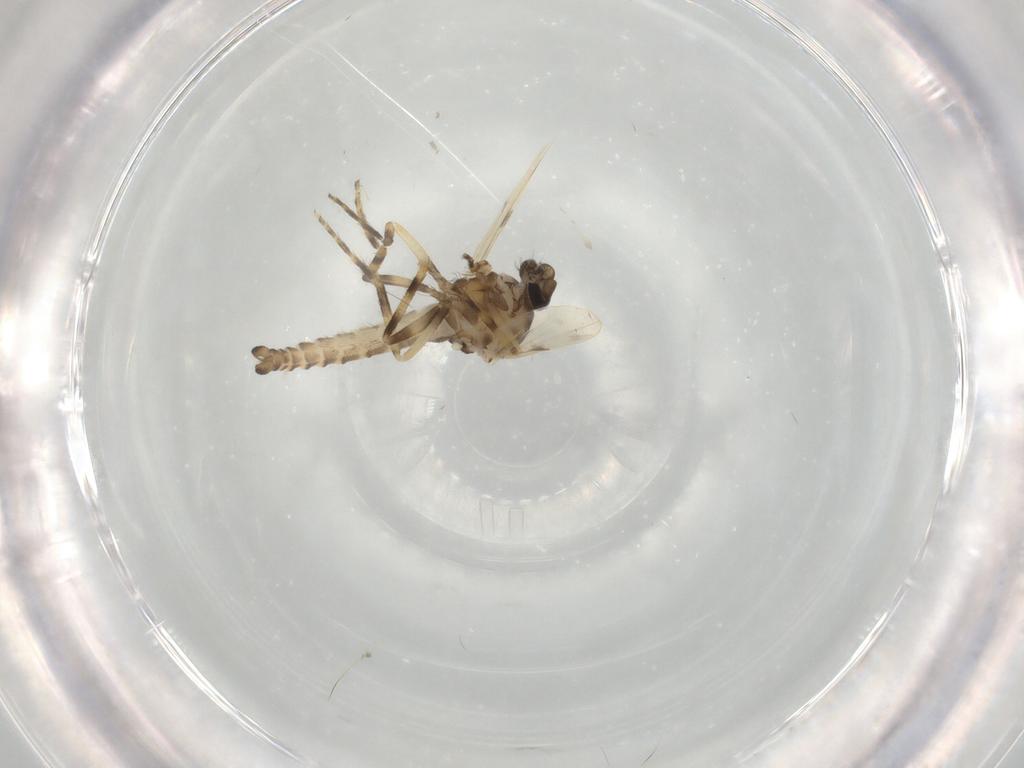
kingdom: Animalia
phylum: Arthropoda
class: Insecta
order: Diptera
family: Ceratopogonidae
